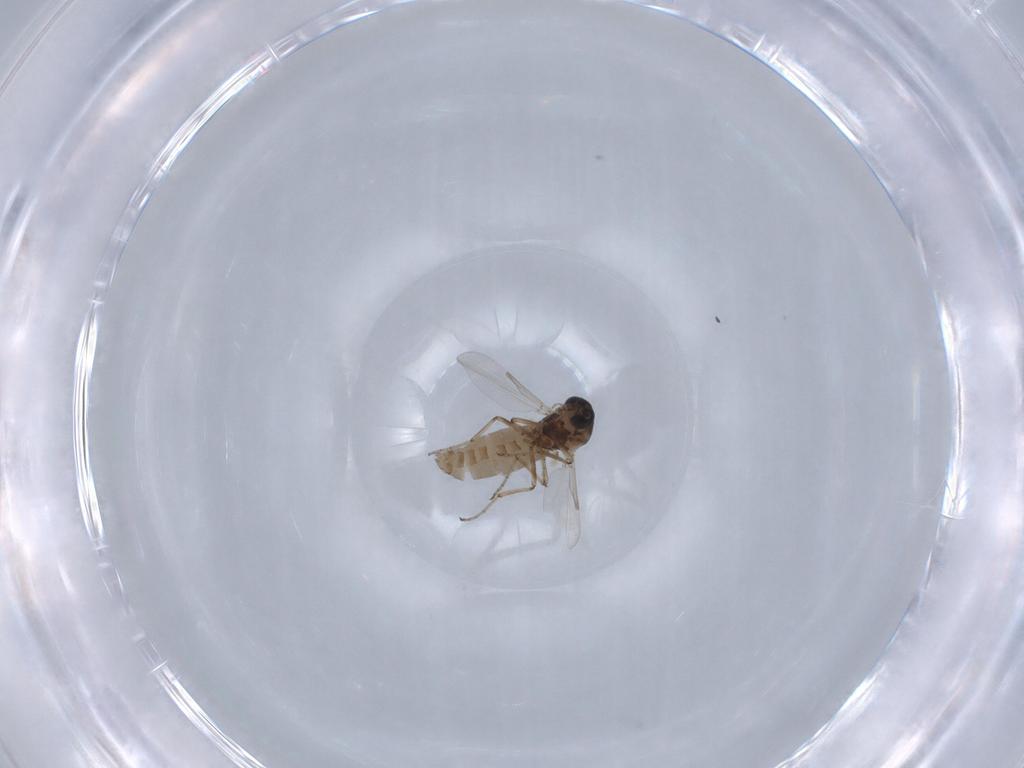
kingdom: Animalia
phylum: Arthropoda
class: Insecta
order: Diptera
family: Ceratopogonidae
